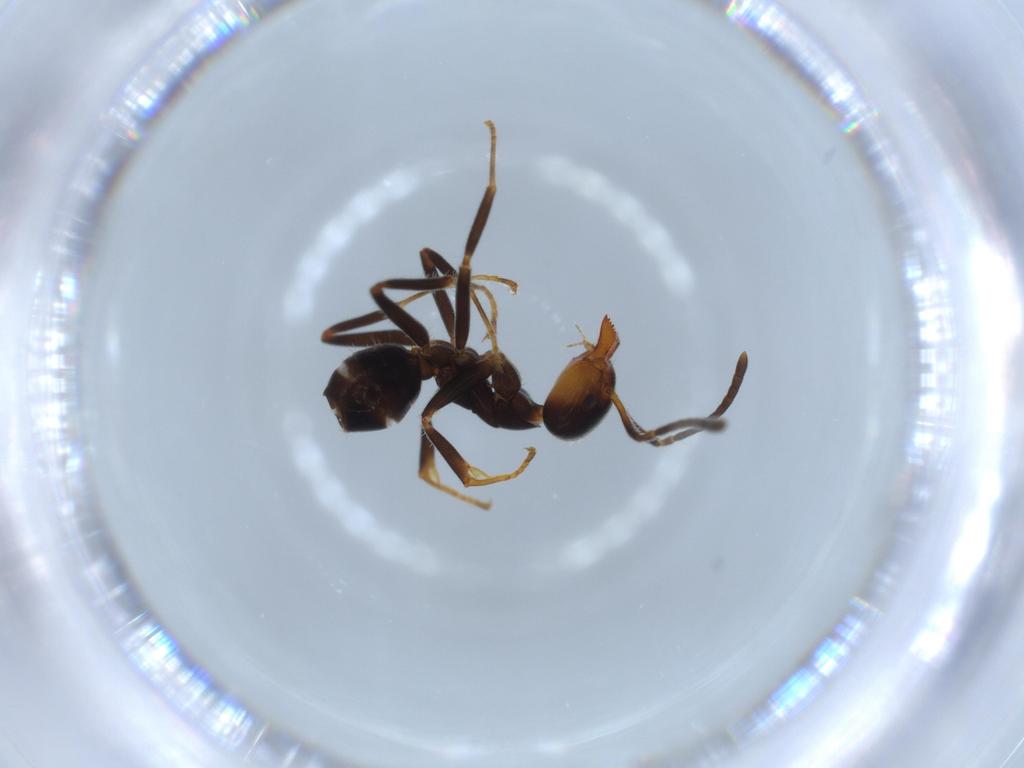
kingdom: Animalia
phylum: Arthropoda
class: Insecta
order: Hymenoptera
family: Formicidae
